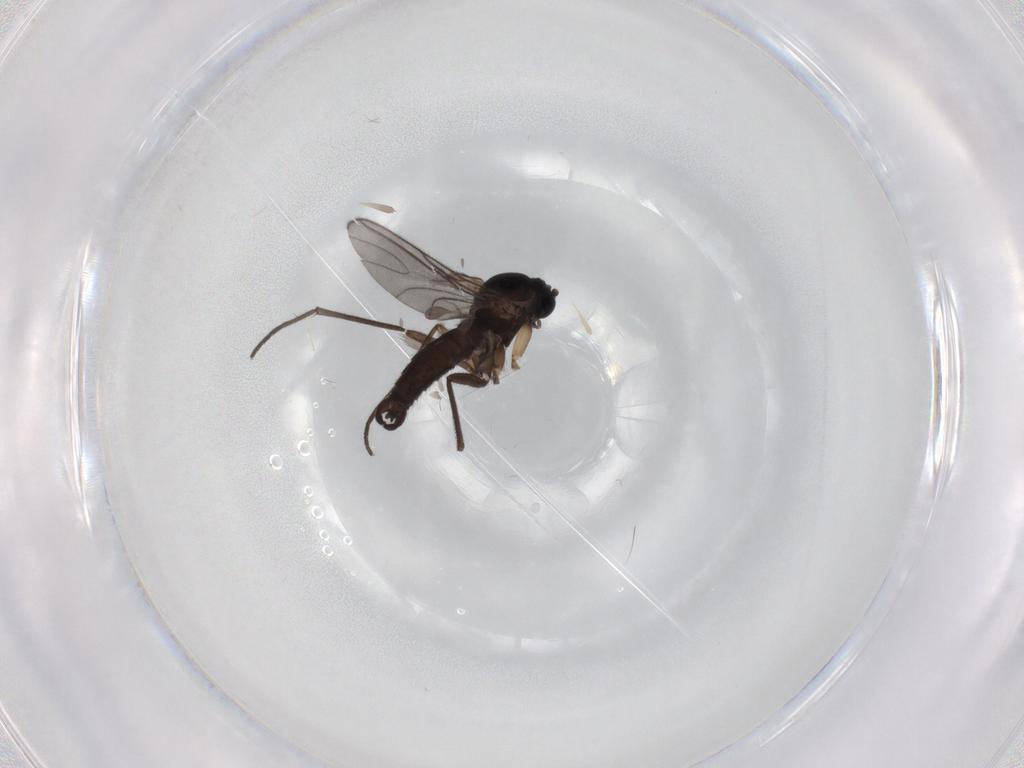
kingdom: Animalia
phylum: Arthropoda
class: Insecta
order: Diptera
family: Sciaridae
